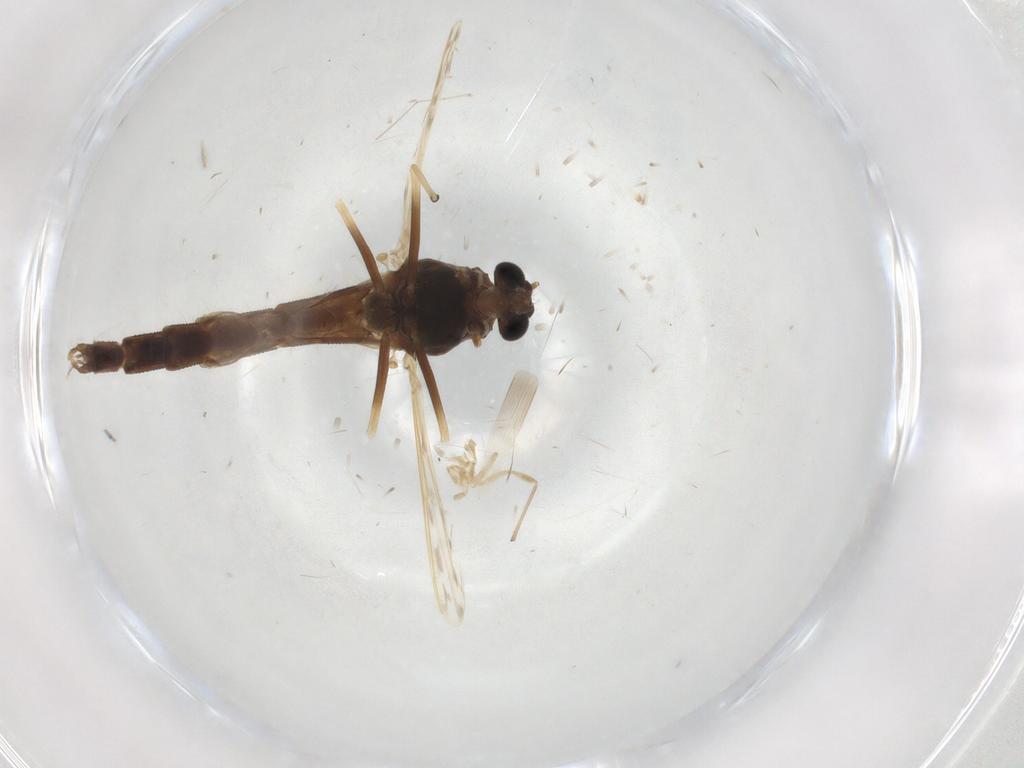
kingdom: Animalia
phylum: Arthropoda
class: Insecta
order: Diptera
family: Chironomidae
